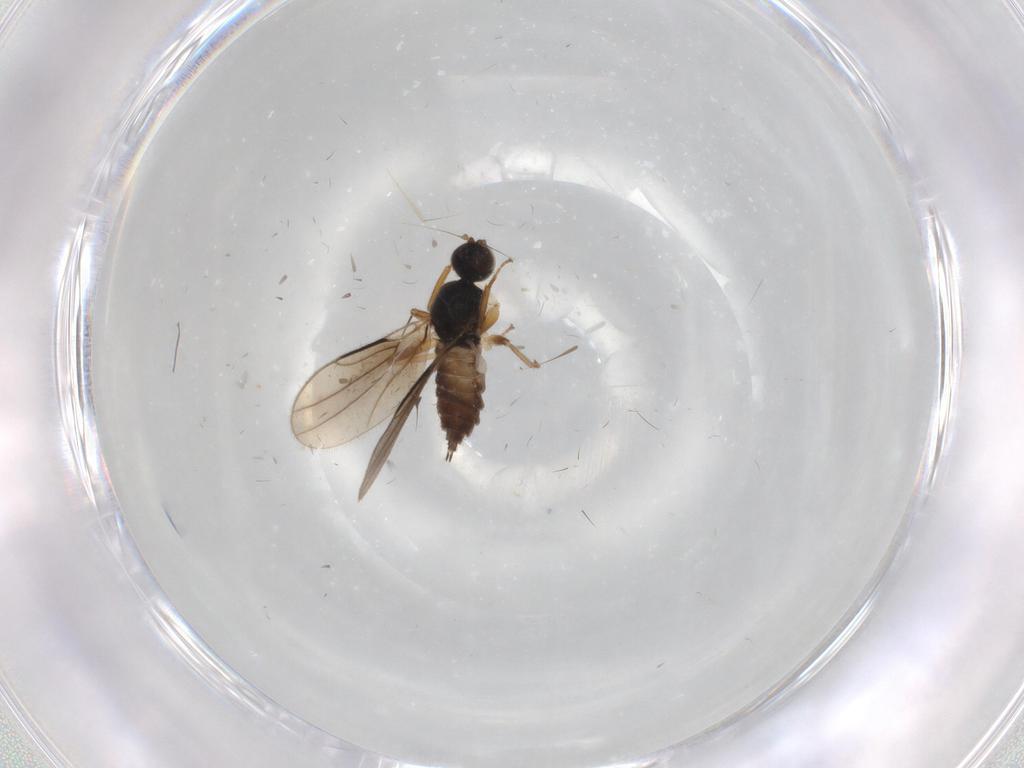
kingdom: Animalia
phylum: Arthropoda
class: Insecta
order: Diptera
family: Hybotidae
